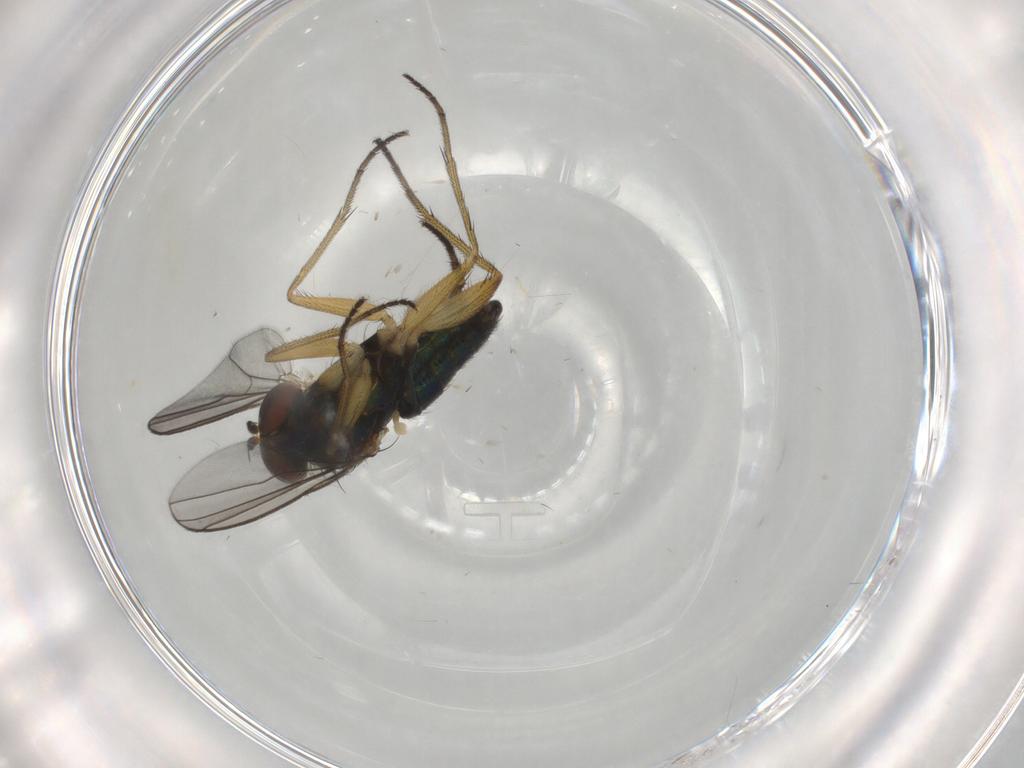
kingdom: Animalia
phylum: Arthropoda
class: Insecta
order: Diptera
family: Dolichopodidae
